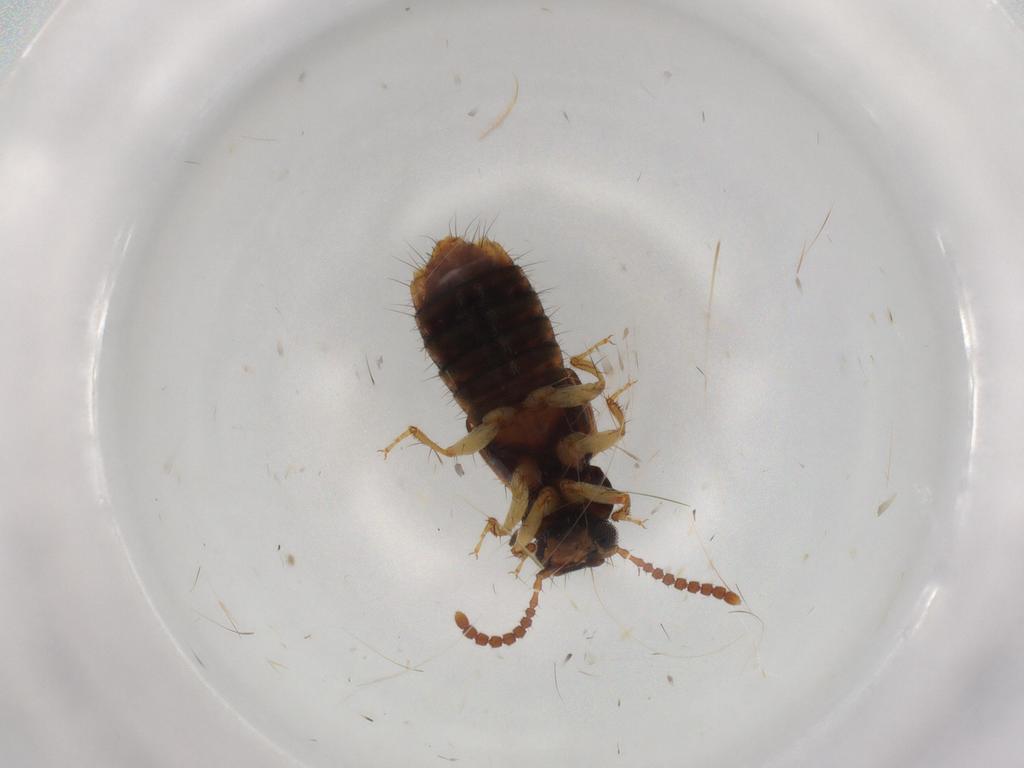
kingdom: Animalia
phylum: Arthropoda
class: Insecta
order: Coleoptera
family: Staphylinidae
